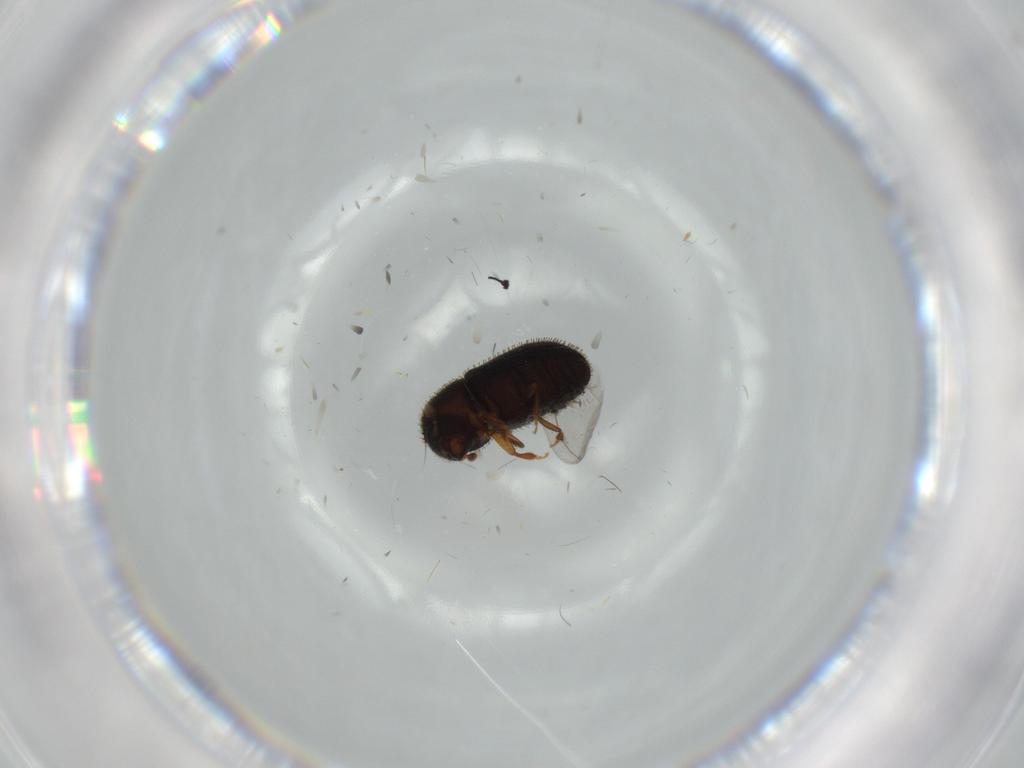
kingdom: Animalia
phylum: Arthropoda
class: Insecta
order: Coleoptera
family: Curculionidae
